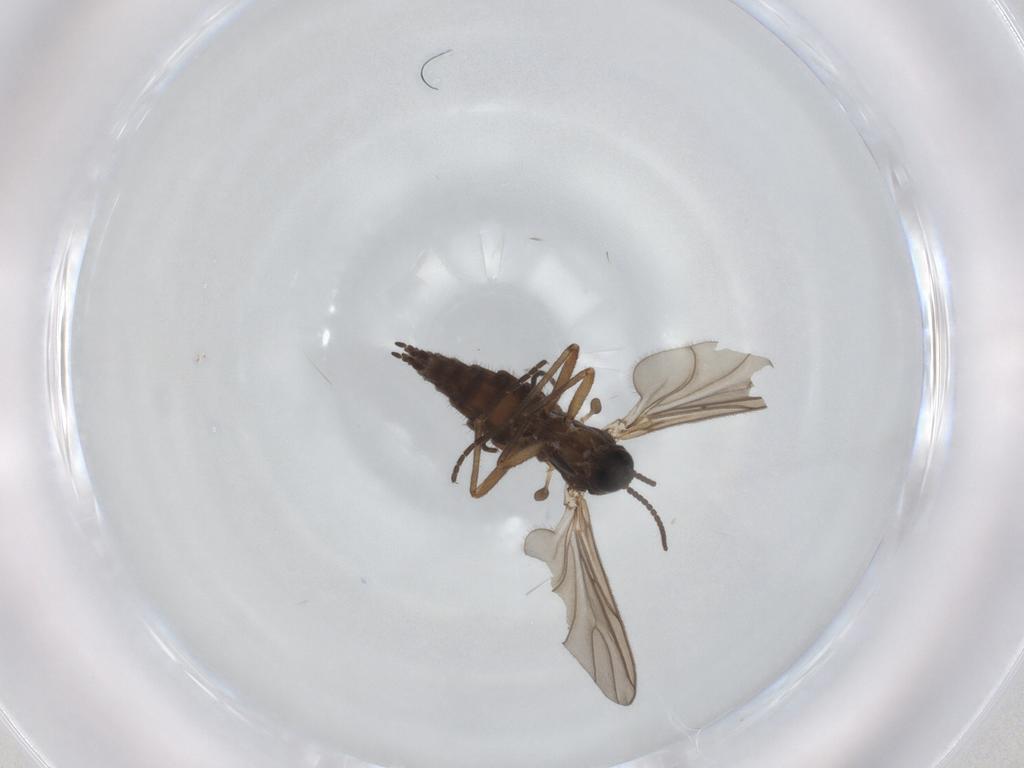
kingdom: Animalia
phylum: Arthropoda
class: Insecta
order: Diptera
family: Sciaridae
